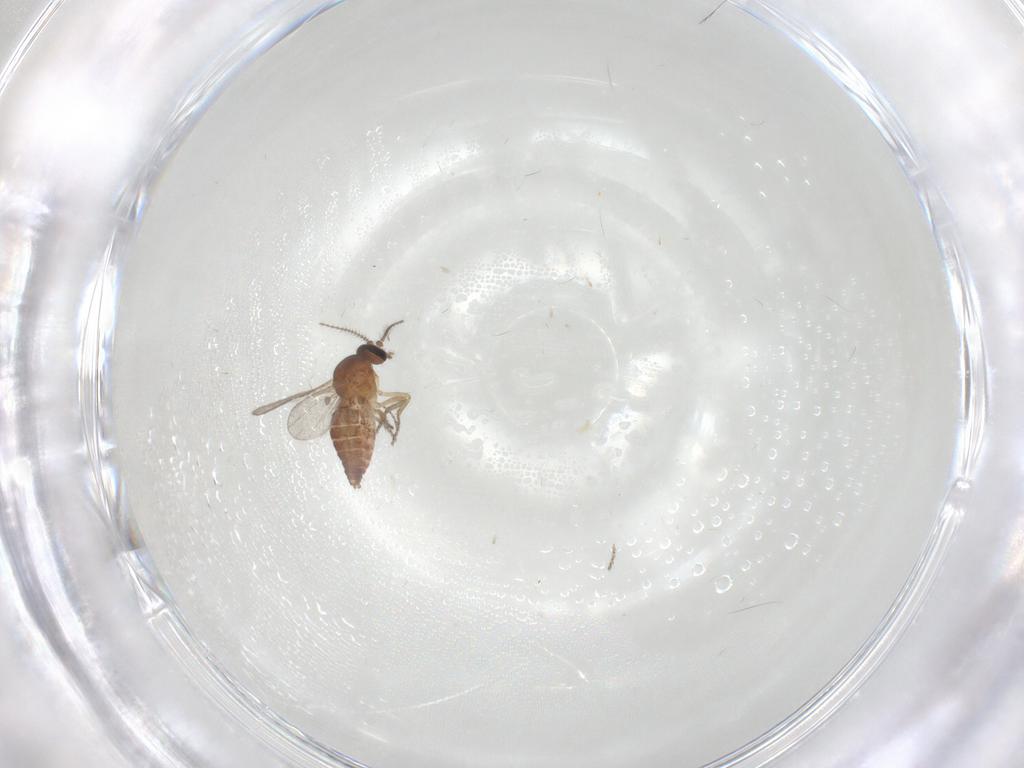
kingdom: Animalia
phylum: Arthropoda
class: Insecta
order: Diptera
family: Ceratopogonidae
